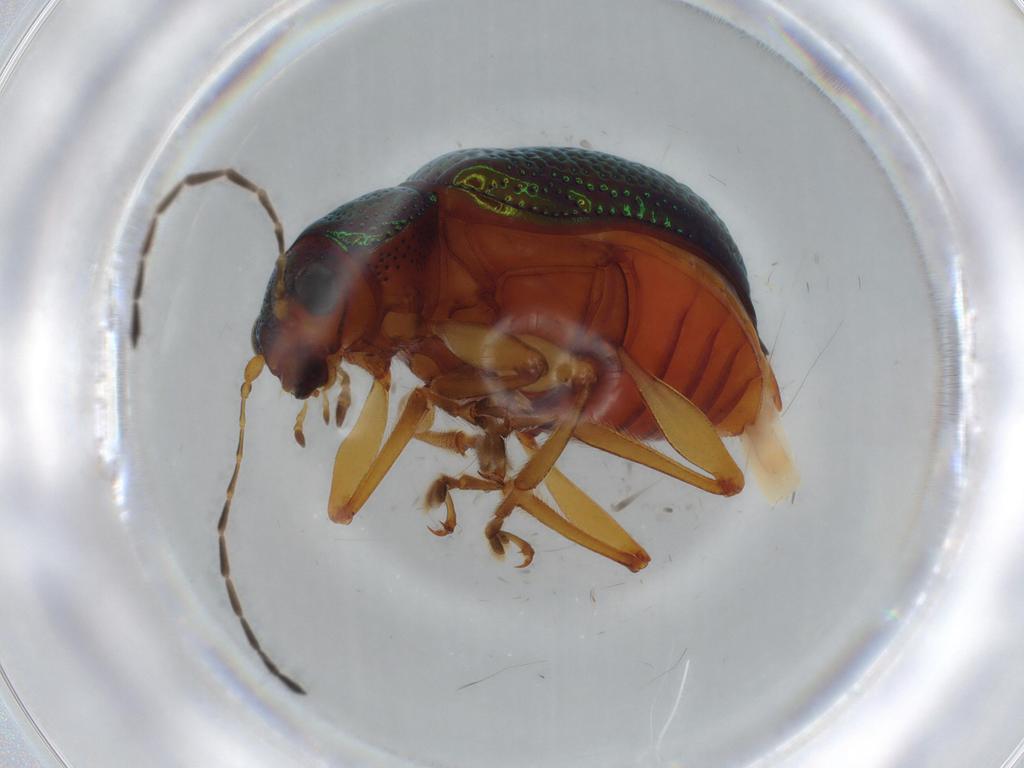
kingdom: Animalia
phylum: Arthropoda
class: Insecta
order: Coleoptera
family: Chrysomelidae
